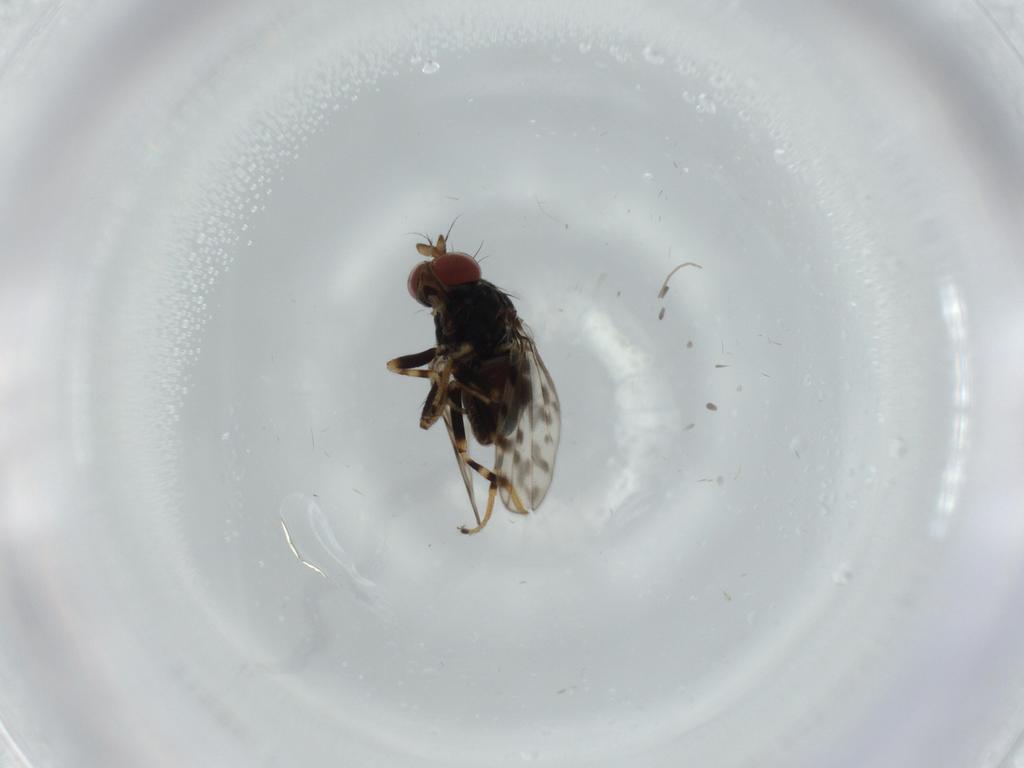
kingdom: Animalia
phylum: Arthropoda
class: Insecta
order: Diptera
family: Ephydridae
